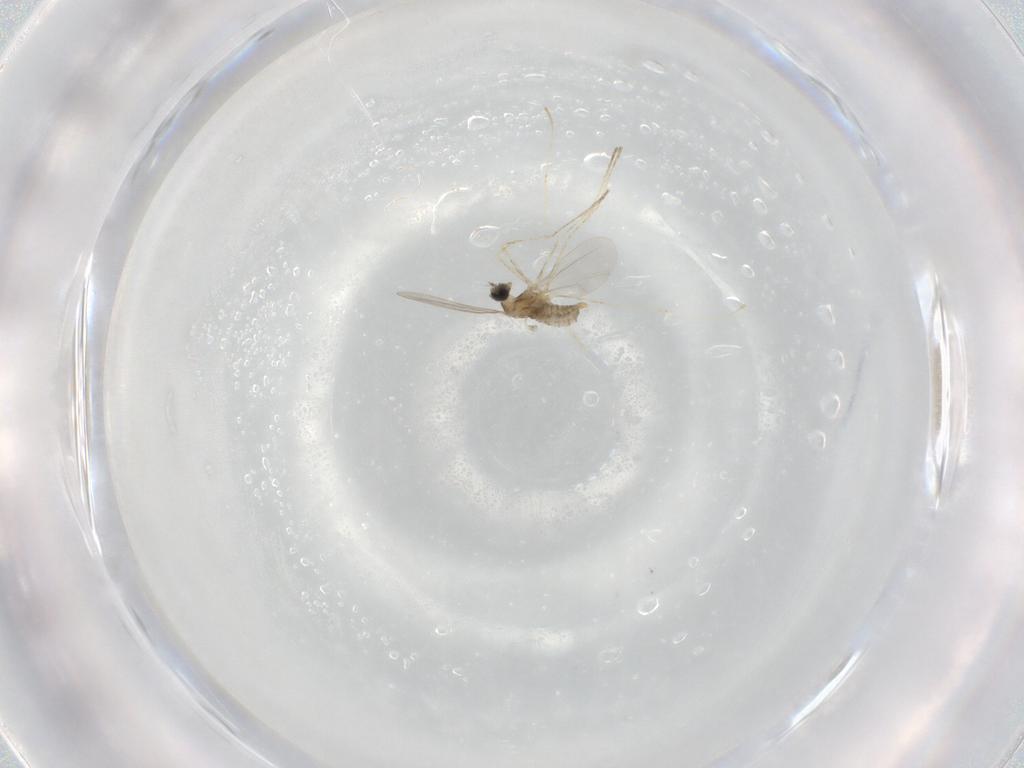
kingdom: Animalia
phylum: Arthropoda
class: Insecta
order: Diptera
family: Cecidomyiidae
